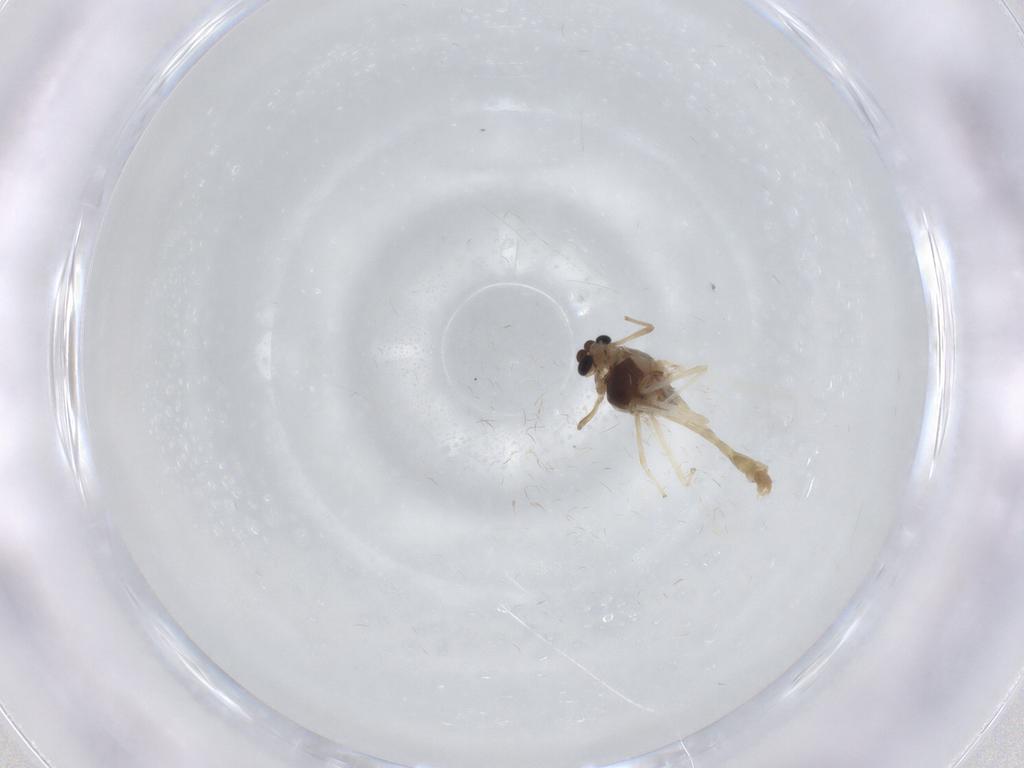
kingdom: Animalia
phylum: Arthropoda
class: Insecta
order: Diptera
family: Chironomidae
